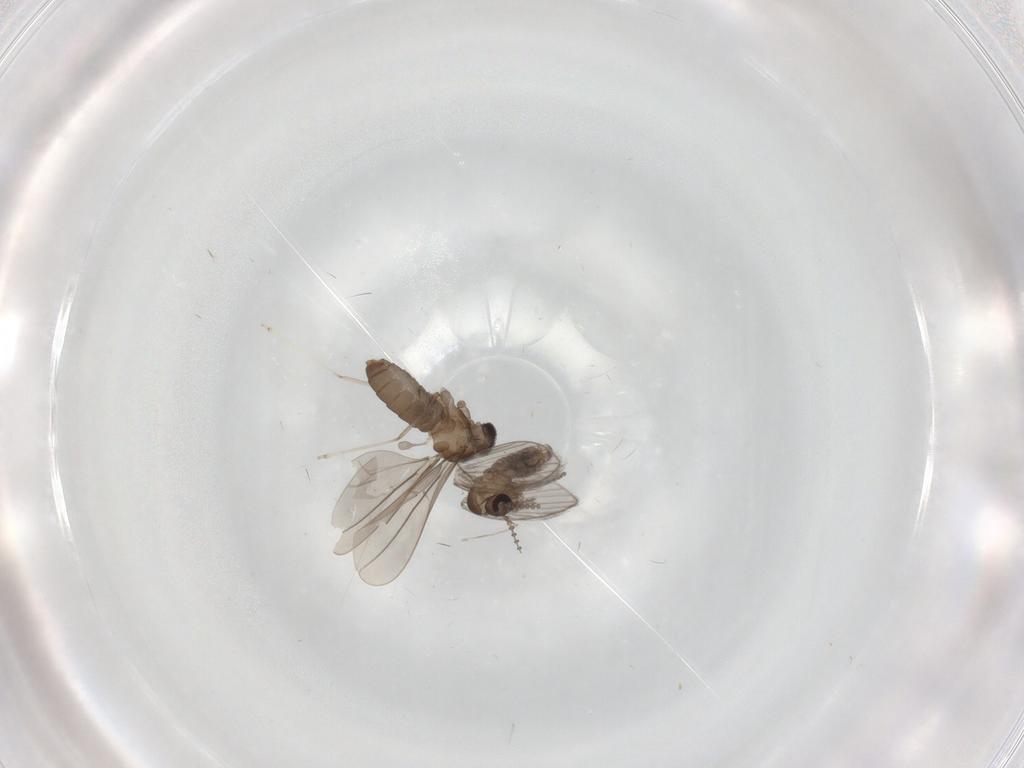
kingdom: Animalia
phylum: Arthropoda
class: Insecta
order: Diptera
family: Psychodidae
